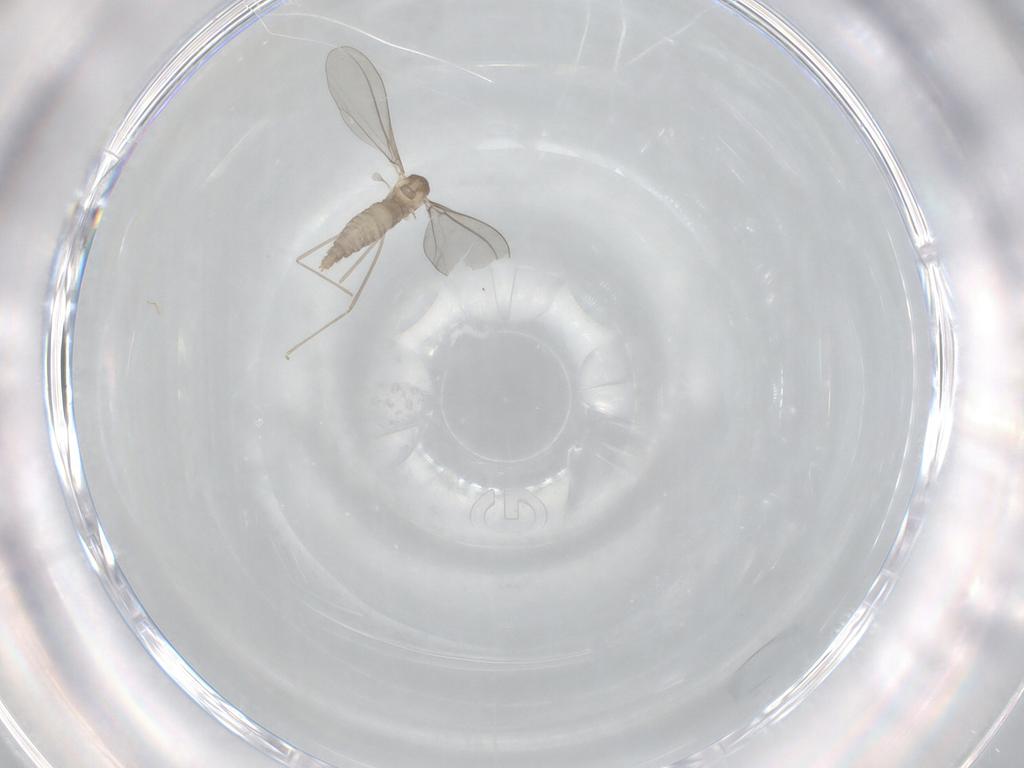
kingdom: Animalia
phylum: Arthropoda
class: Insecta
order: Diptera
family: Cecidomyiidae
